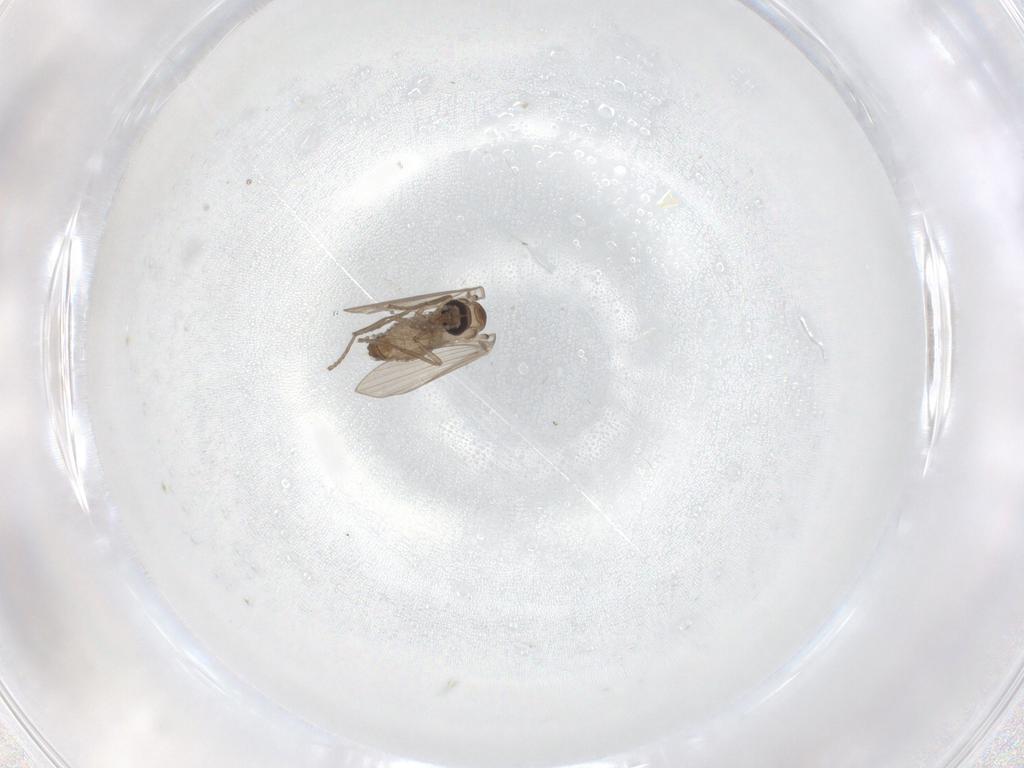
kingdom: Animalia
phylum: Arthropoda
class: Insecta
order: Diptera
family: Psychodidae
